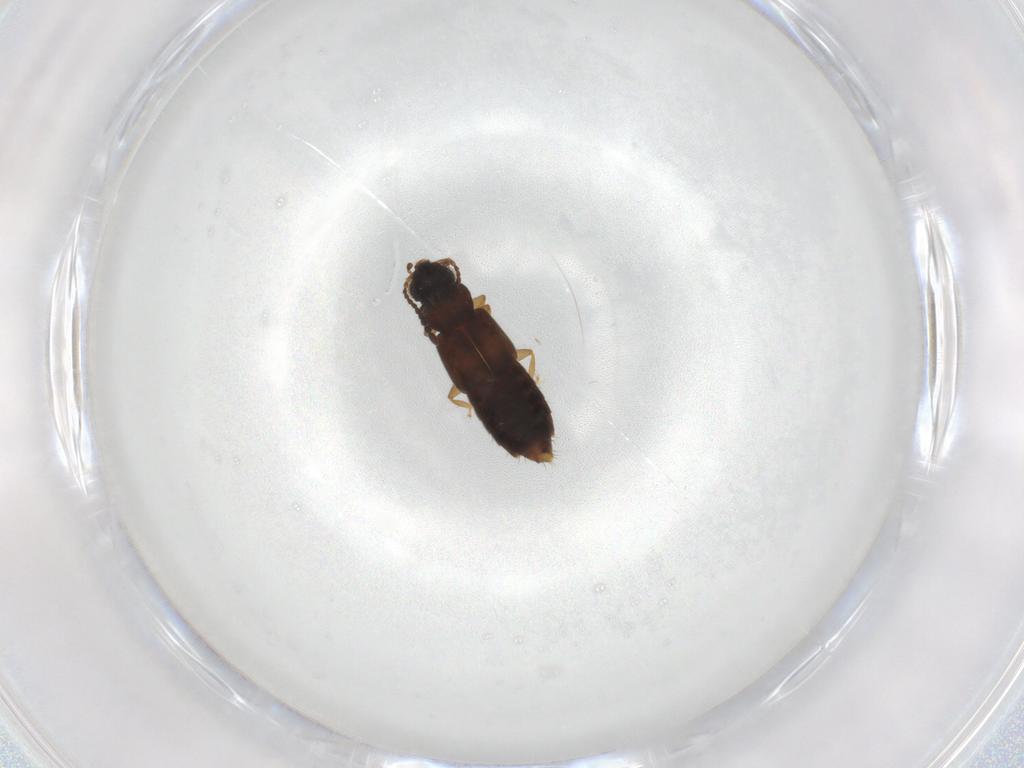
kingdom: Animalia
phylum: Arthropoda
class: Insecta
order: Coleoptera
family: Staphylinidae
